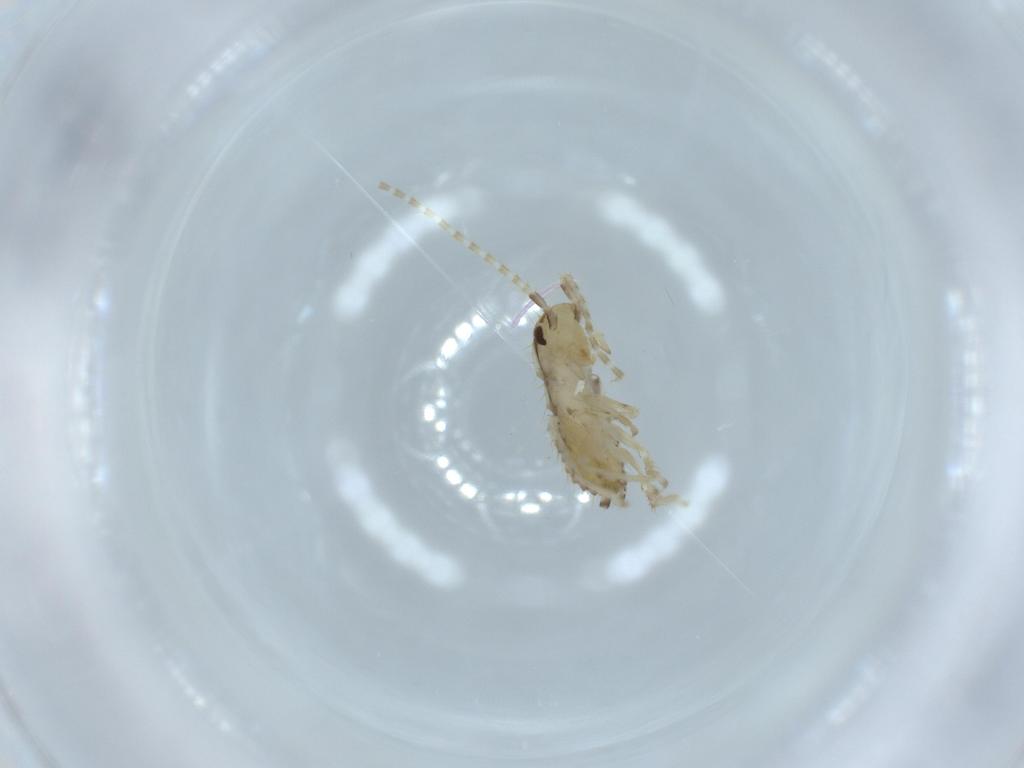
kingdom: Animalia
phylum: Arthropoda
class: Insecta
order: Blattodea
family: Ectobiidae
